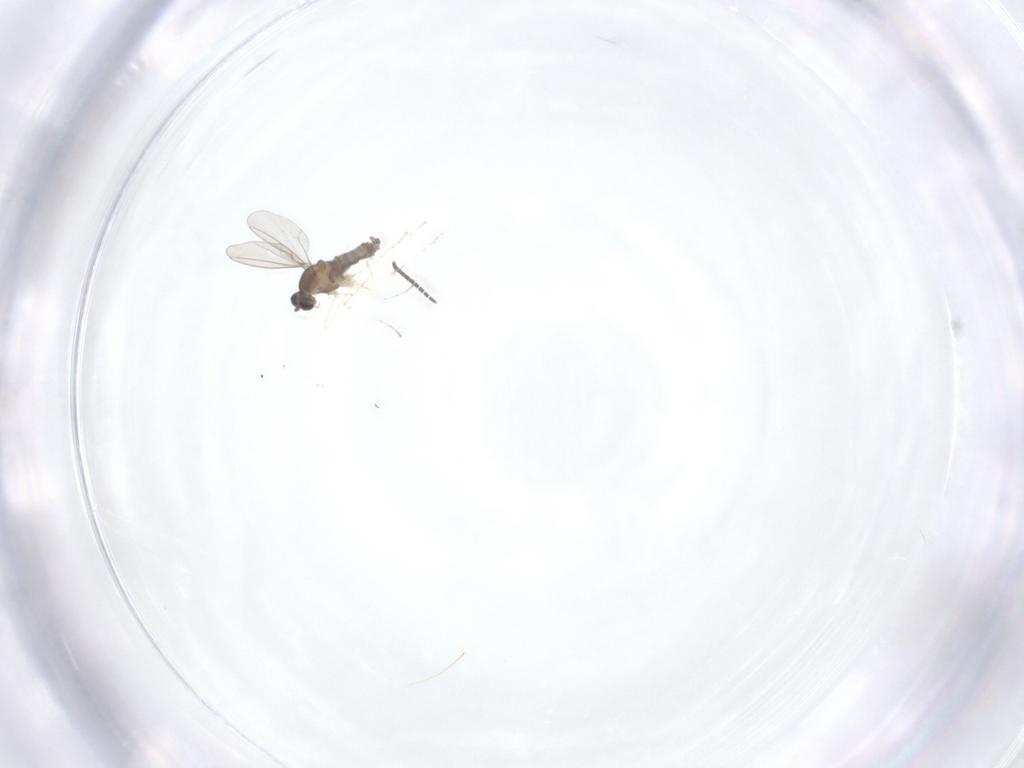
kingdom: Animalia
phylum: Arthropoda
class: Insecta
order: Diptera
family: Sciaridae
